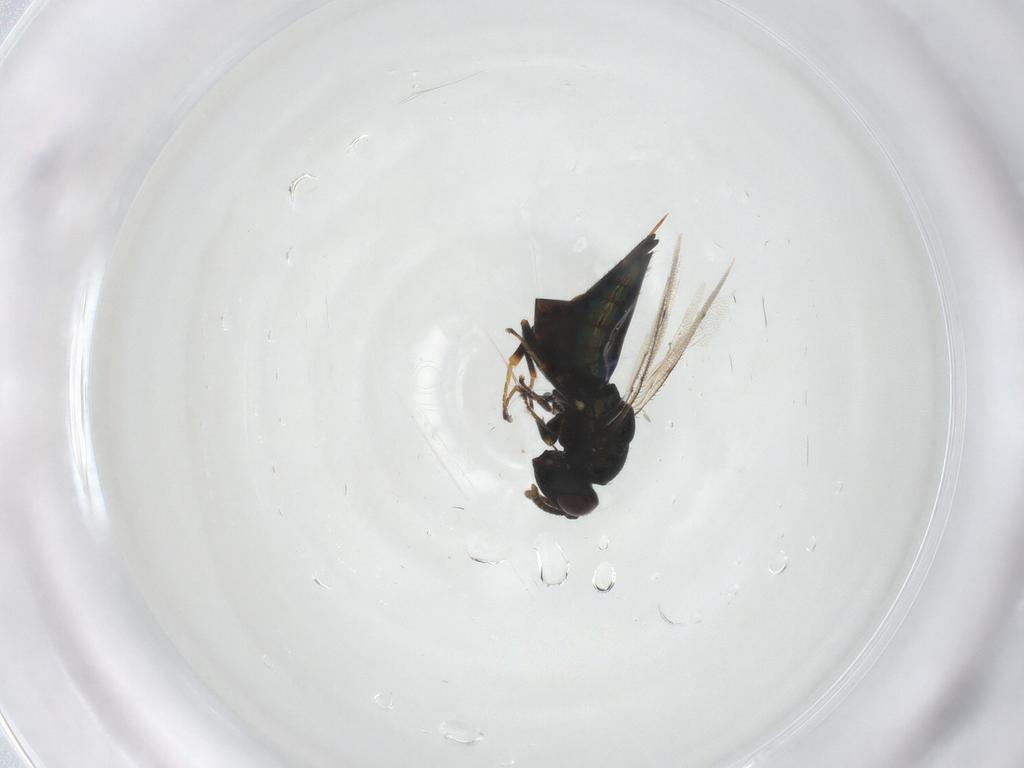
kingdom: Animalia
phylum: Arthropoda
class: Insecta
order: Hymenoptera
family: Pteromalidae
